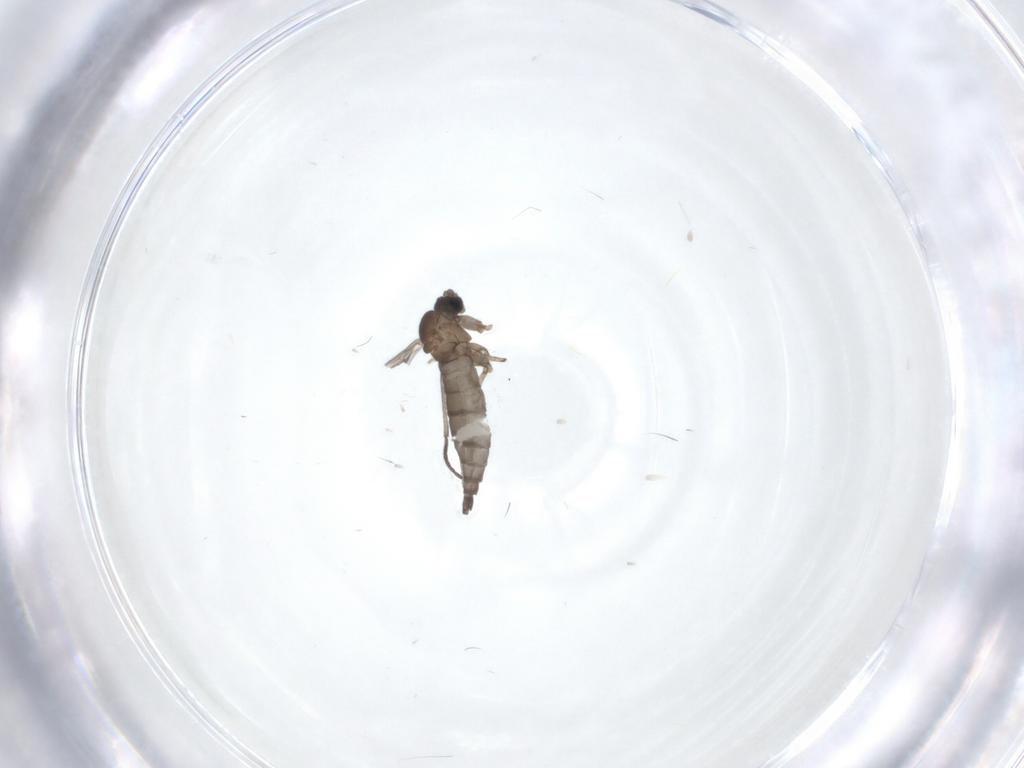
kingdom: Animalia
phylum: Arthropoda
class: Insecta
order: Diptera
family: Sciaridae
